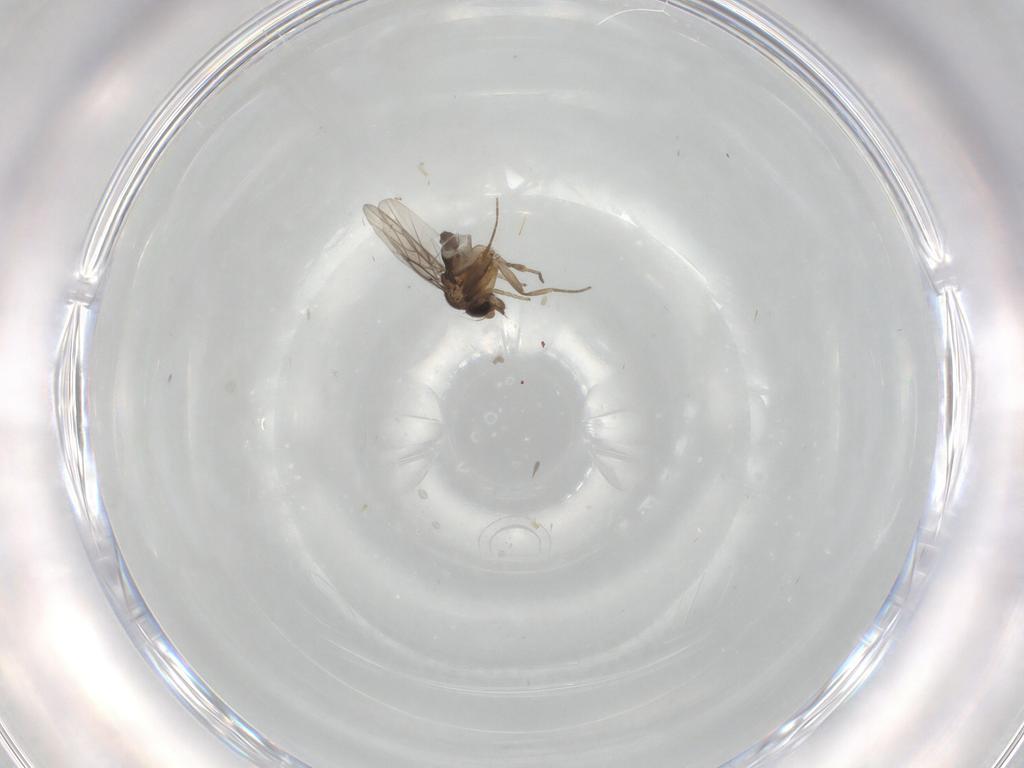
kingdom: Animalia
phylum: Arthropoda
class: Insecta
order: Diptera
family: Phoridae
